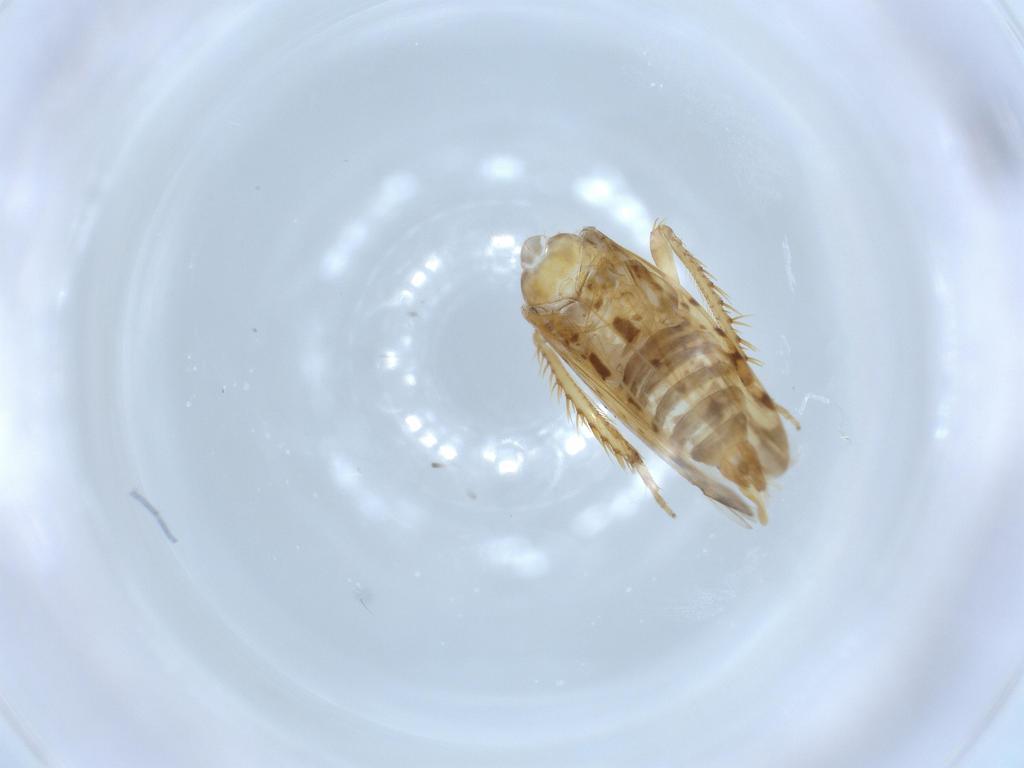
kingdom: Animalia
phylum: Arthropoda
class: Insecta
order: Hemiptera
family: Cicadellidae
